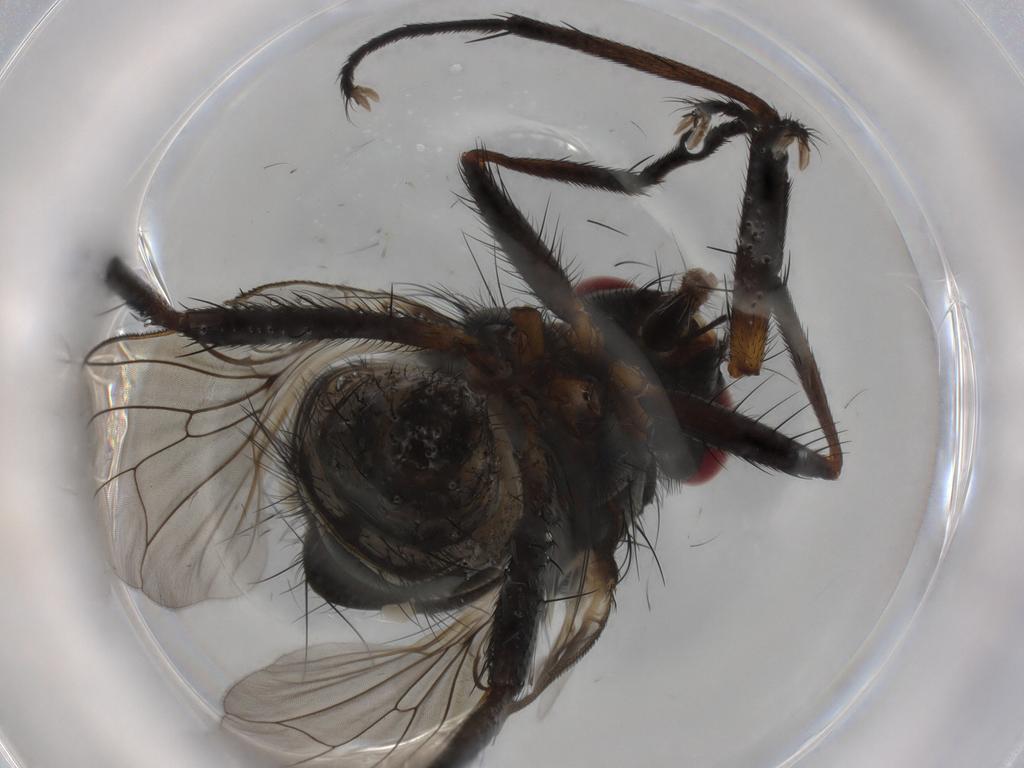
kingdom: Animalia
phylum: Arthropoda
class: Insecta
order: Diptera
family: Anthomyiidae
